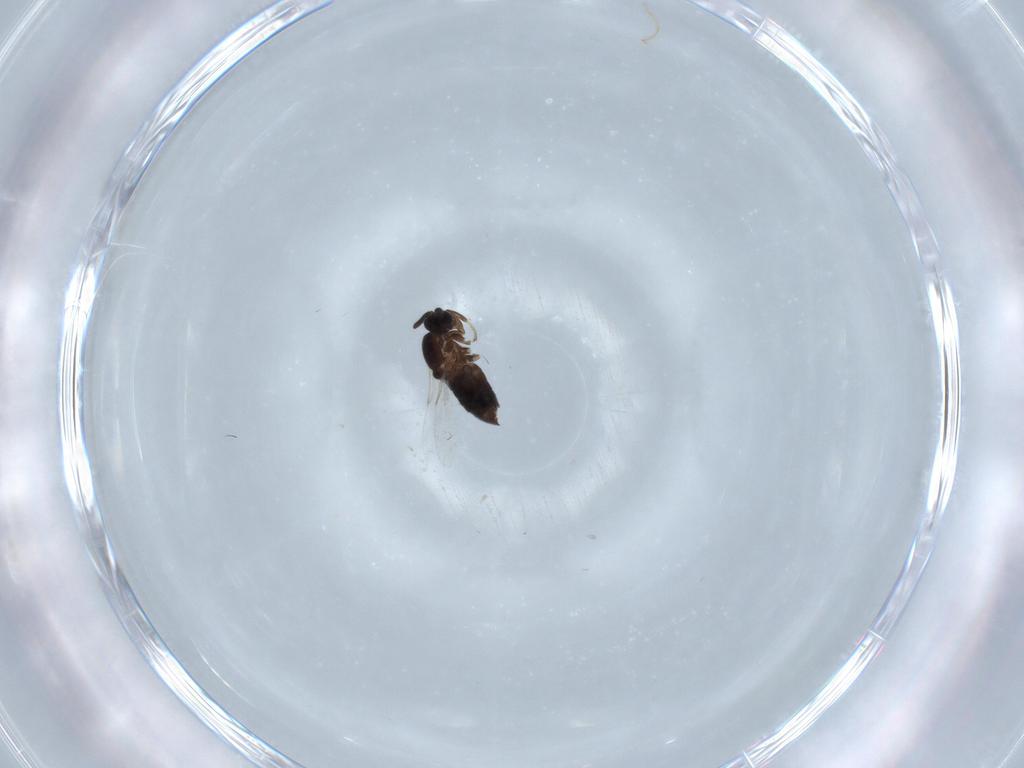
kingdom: Animalia
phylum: Arthropoda
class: Insecta
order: Diptera
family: Scatopsidae
